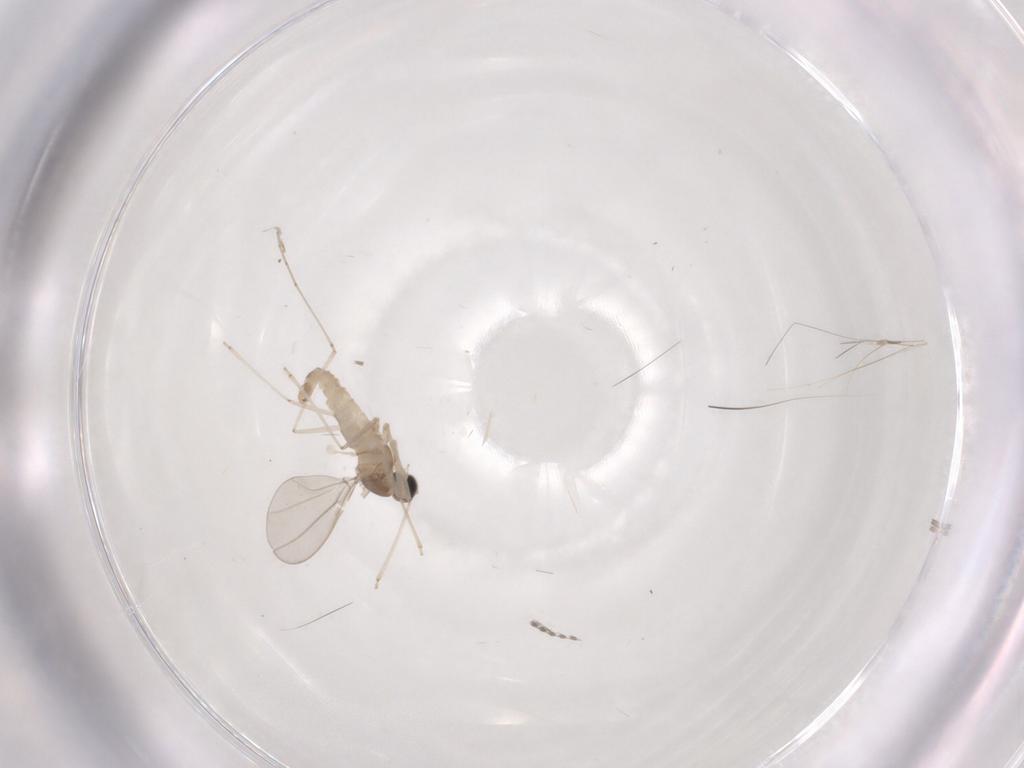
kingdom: Animalia
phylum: Arthropoda
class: Insecta
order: Diptera
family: Cecidomyiidae
